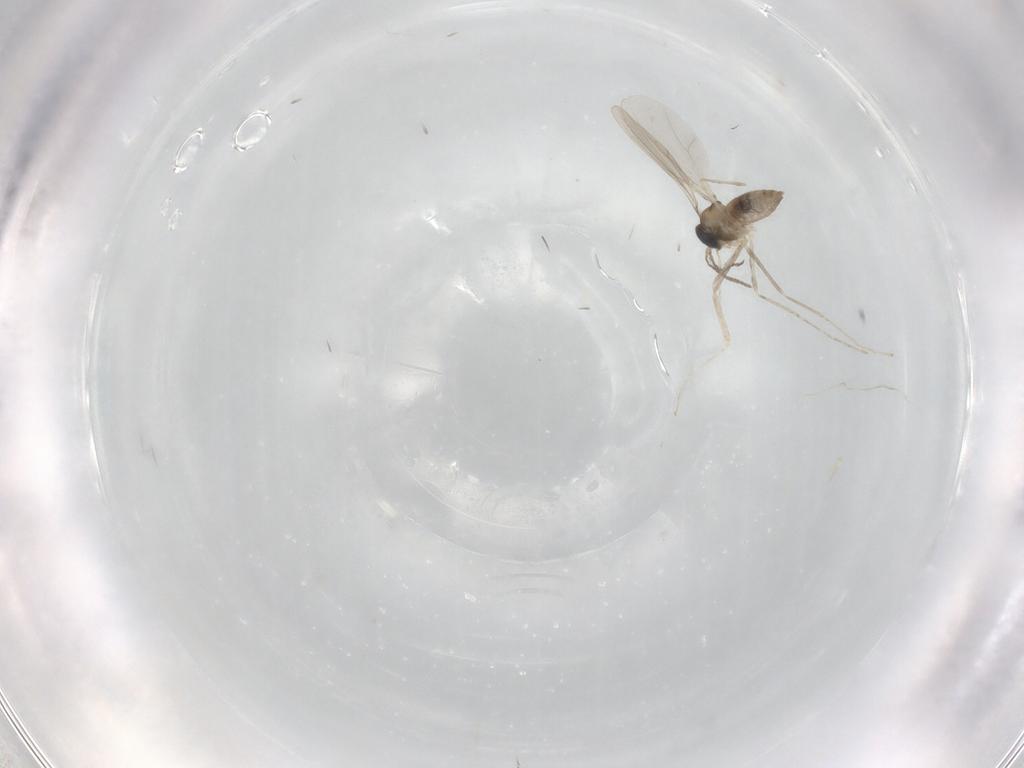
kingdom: Animalia
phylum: Arthropoda
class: Insecta
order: Diptera
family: Cecidomyiidae
